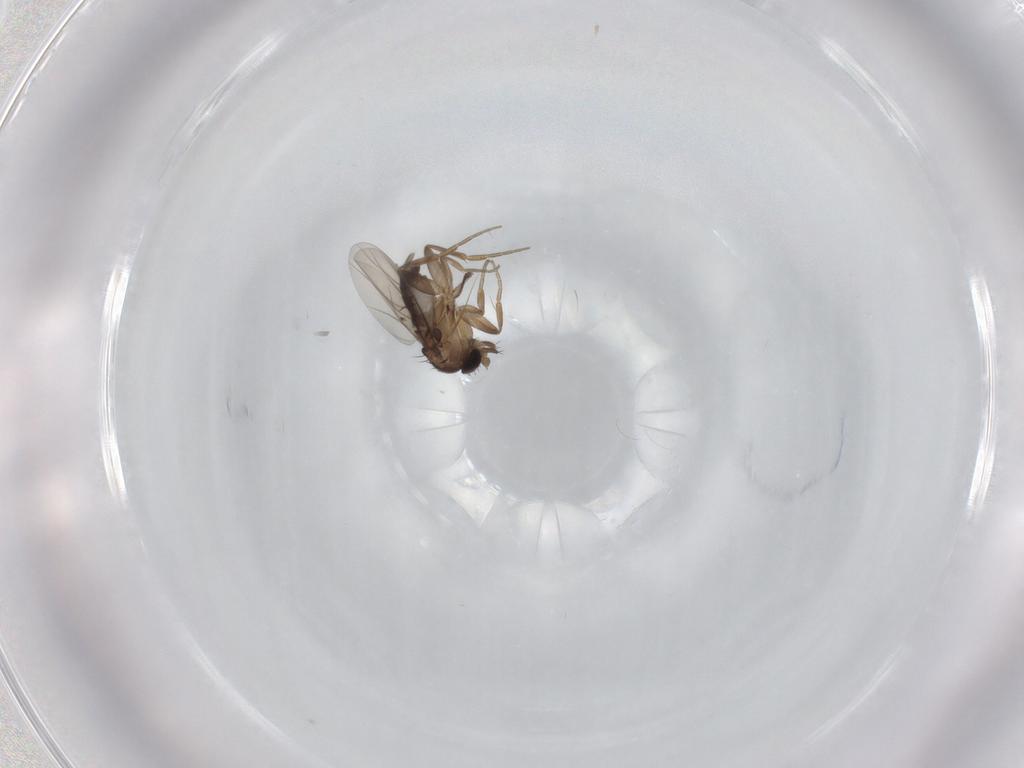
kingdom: Animalia
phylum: Arthropoda
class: Insecta
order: Diptera
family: Phoridae
